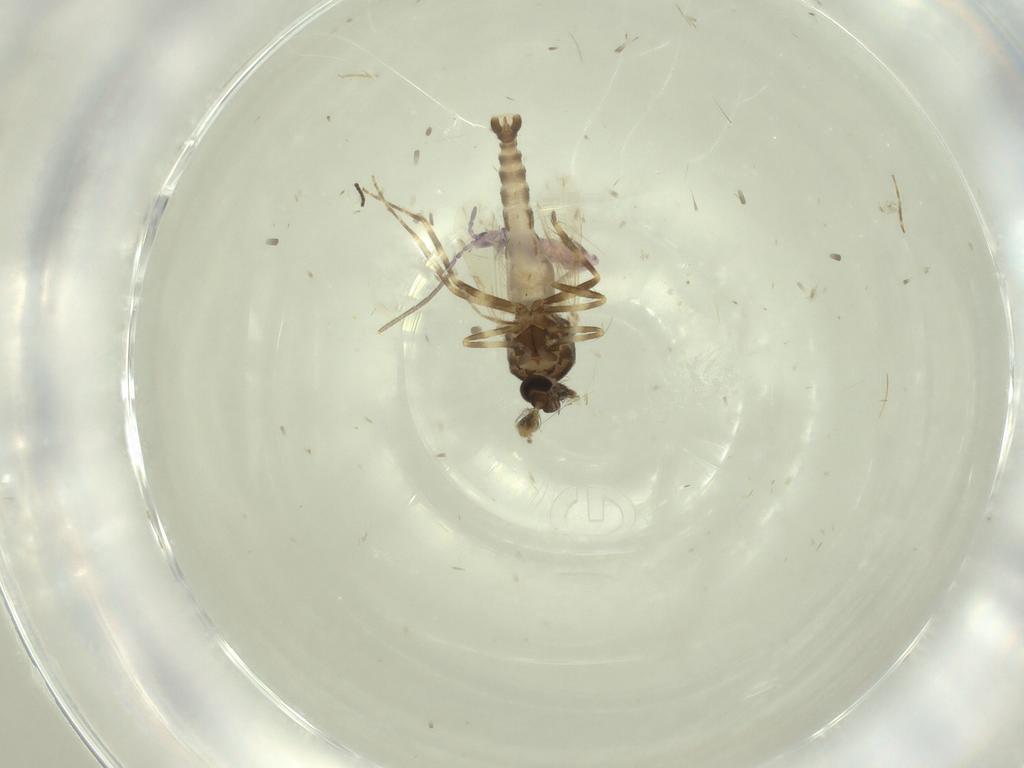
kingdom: Animalia
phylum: Arthropoda
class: Insecta
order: Diptera
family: Ceratopogonidae
